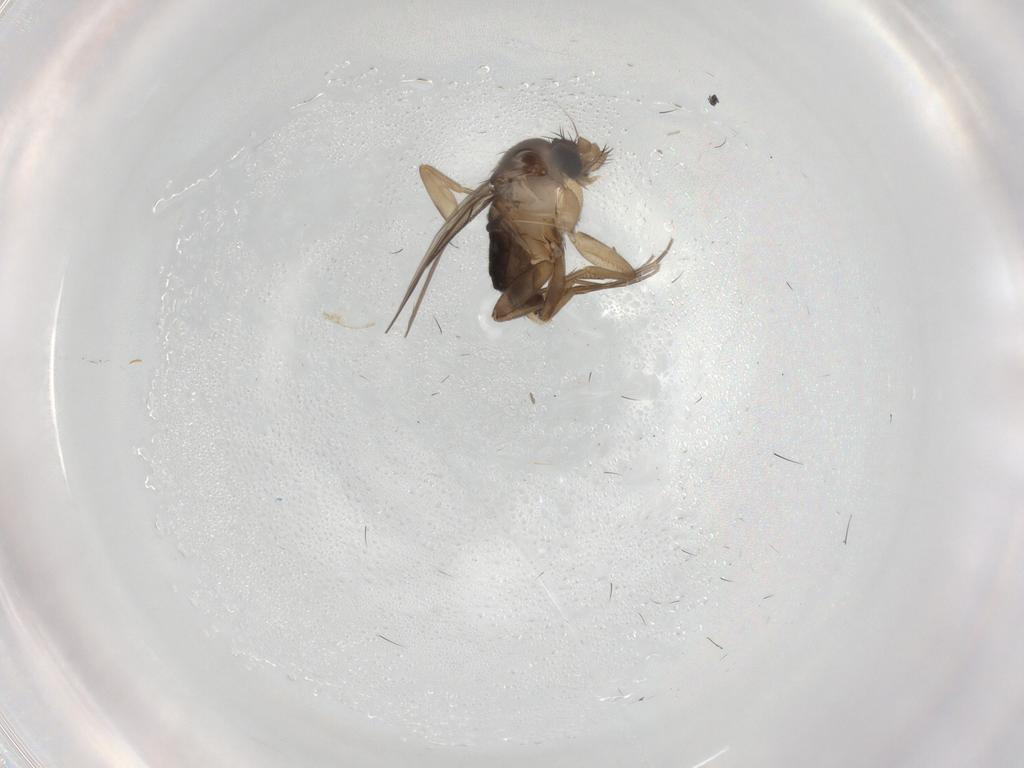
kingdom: Animalia
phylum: Arthropoda
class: Insecta
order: Diptera
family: Phoridae
